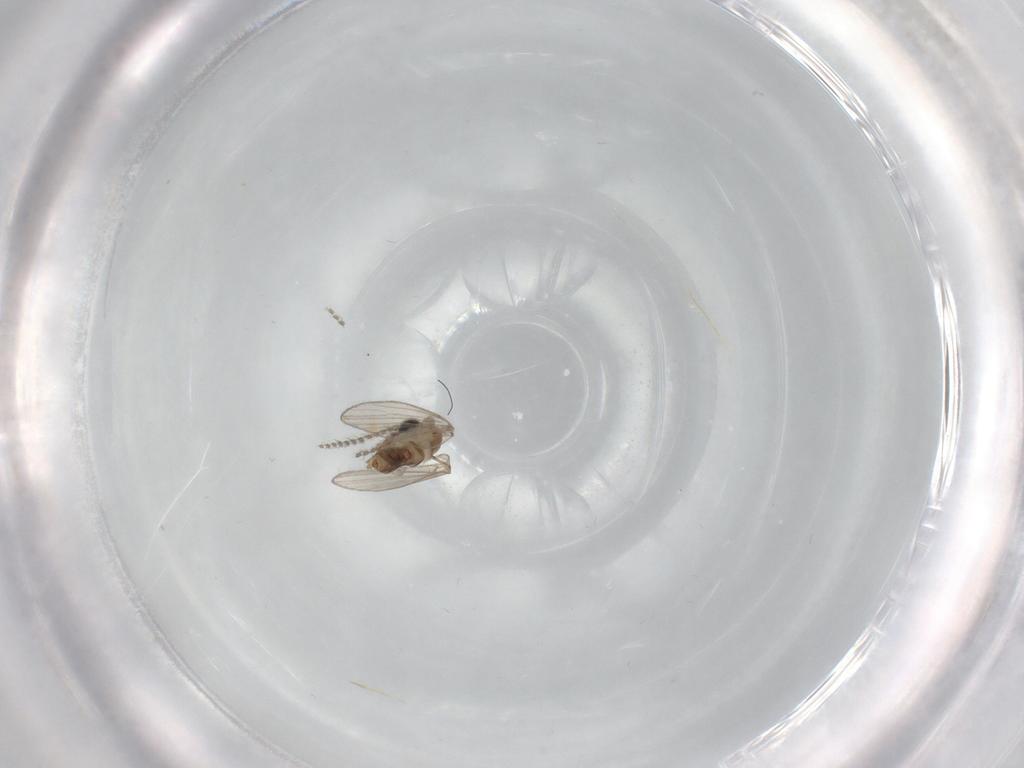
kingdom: Animalia
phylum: Arthropoda
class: Insecta
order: Diptera
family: Psychodidae
